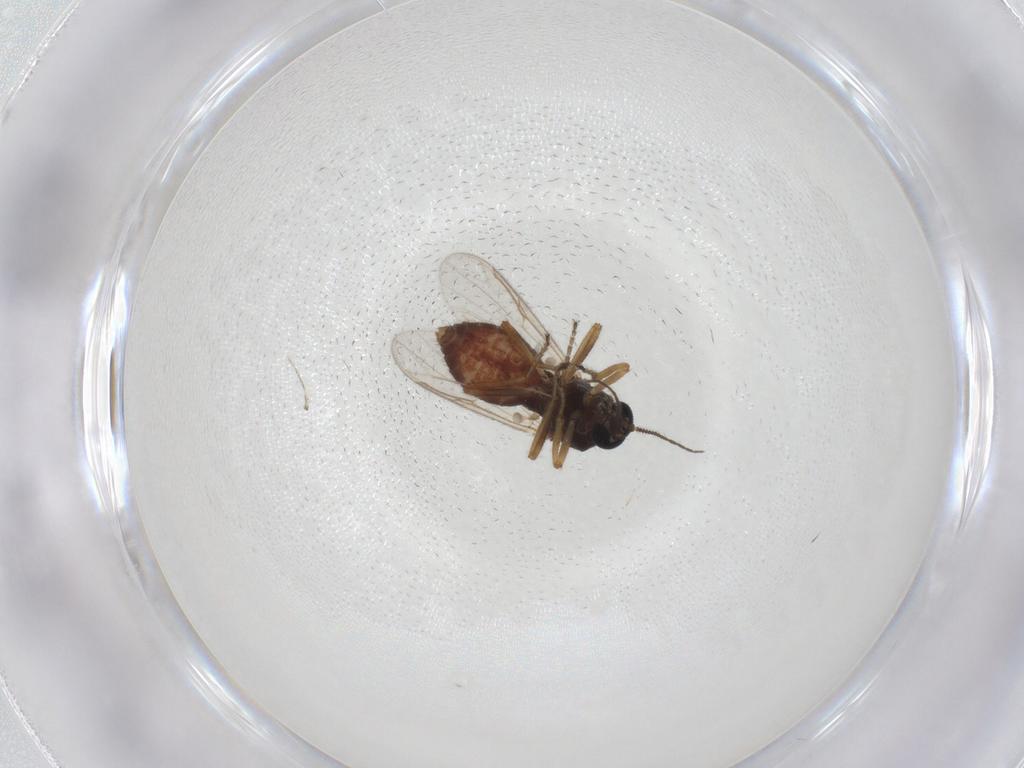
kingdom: Animalia
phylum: Arthropoda
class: Insecta
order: Diptera
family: Ceratopogonidae
